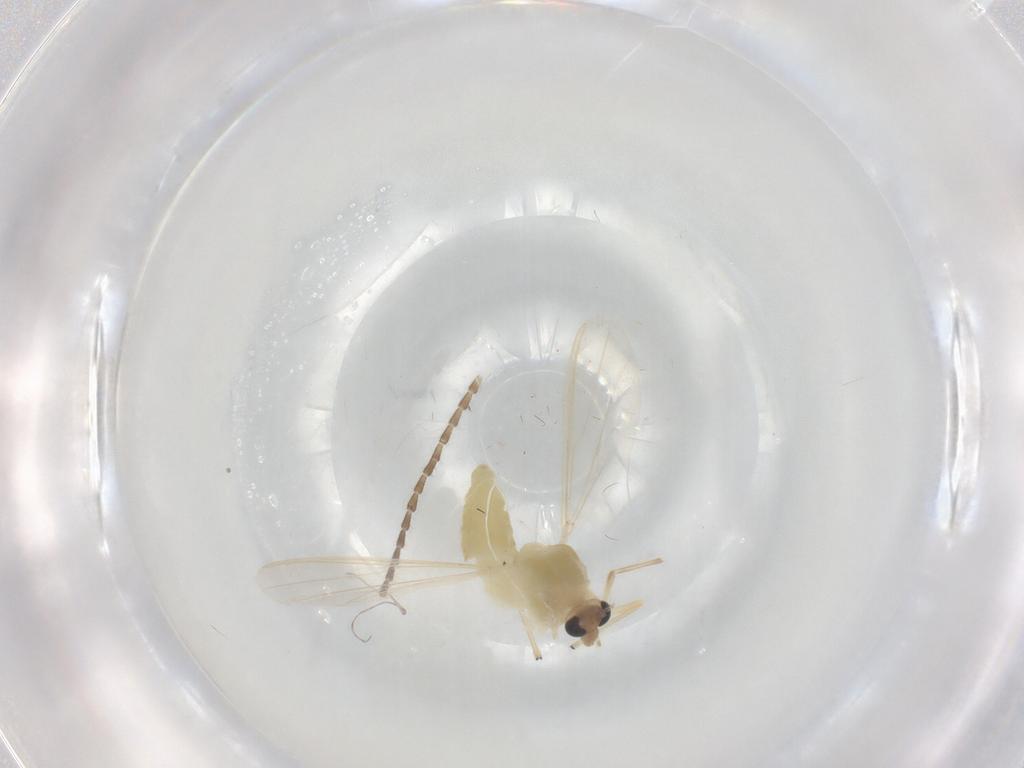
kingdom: Animalia
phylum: Arthropoda
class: Insecta
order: Diptera
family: Chironomidae
